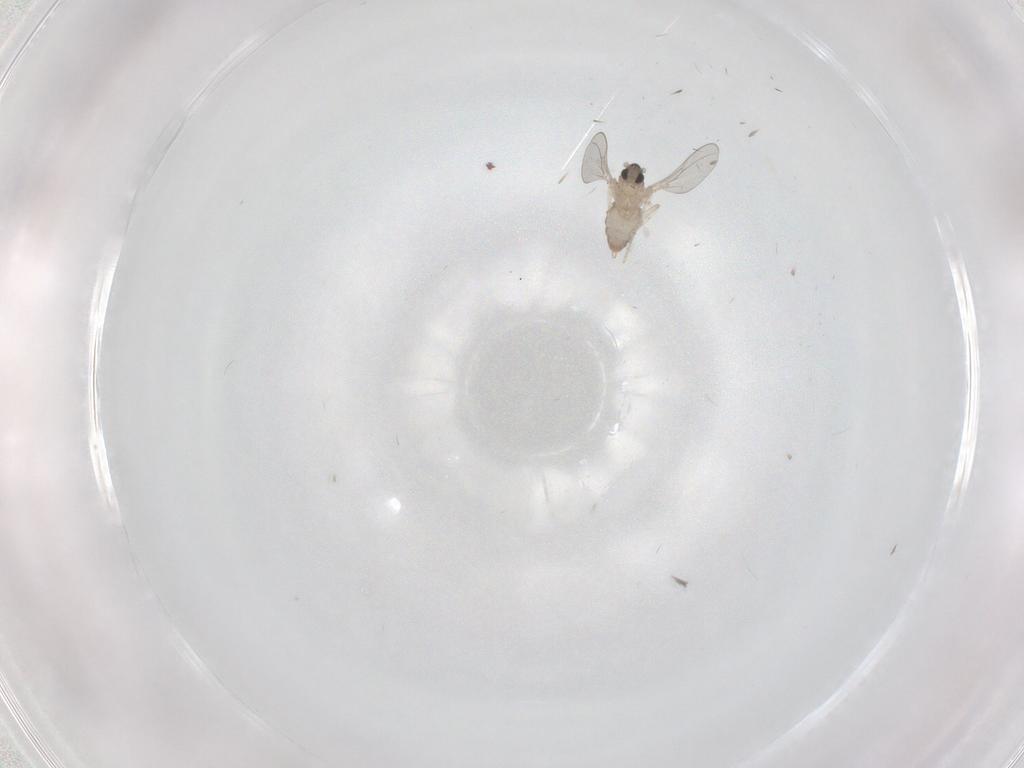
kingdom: Animalia
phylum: Arthropoda
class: Insecta
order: Diptera
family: Cecidomyiidae
